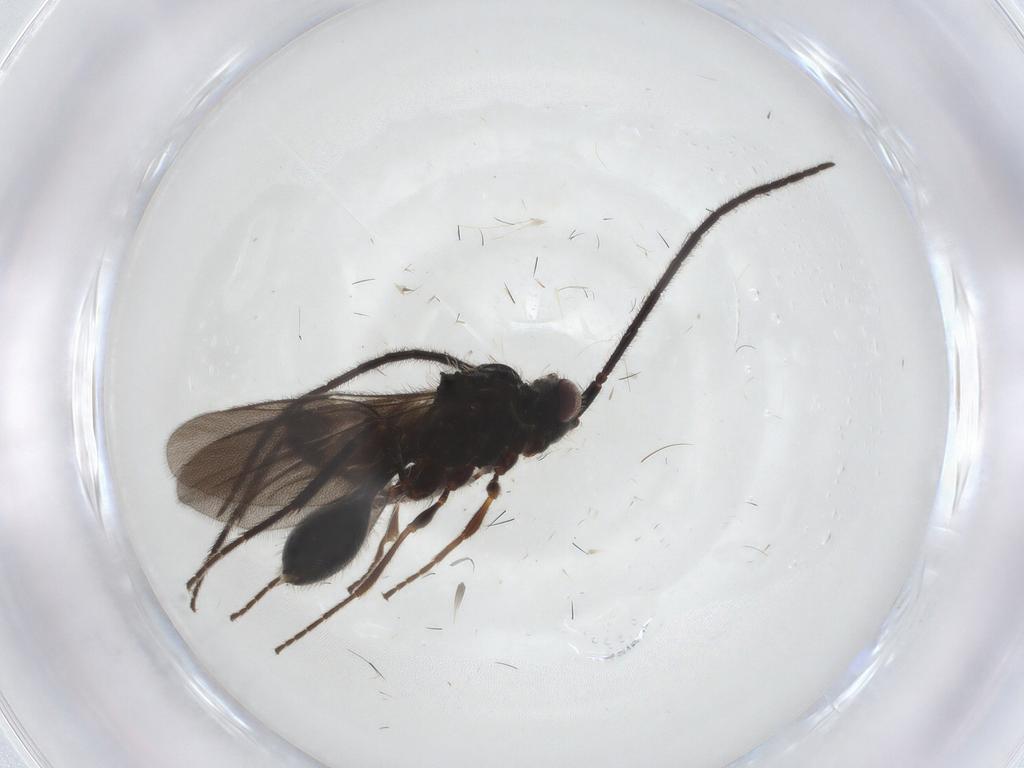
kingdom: Animalia
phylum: Arthropoda
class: Insecta
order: Hymenoptera
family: Diapriidae
